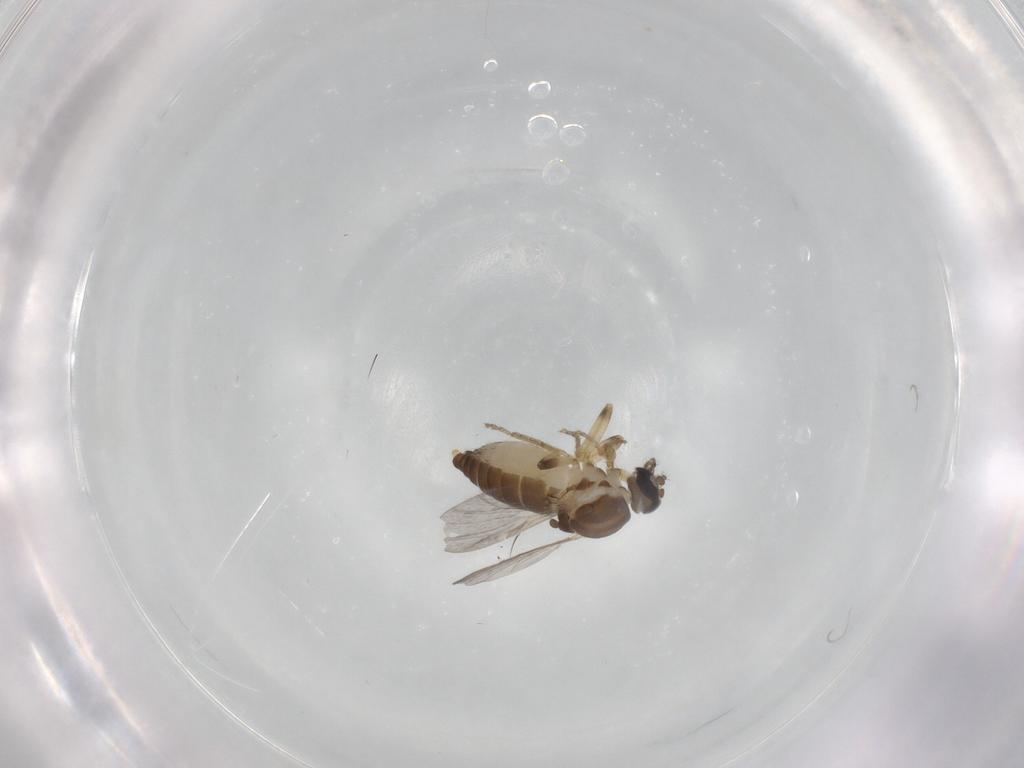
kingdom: Animalia
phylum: Arthropoda
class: Insecta
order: Diptera
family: Ceratopogonidae
